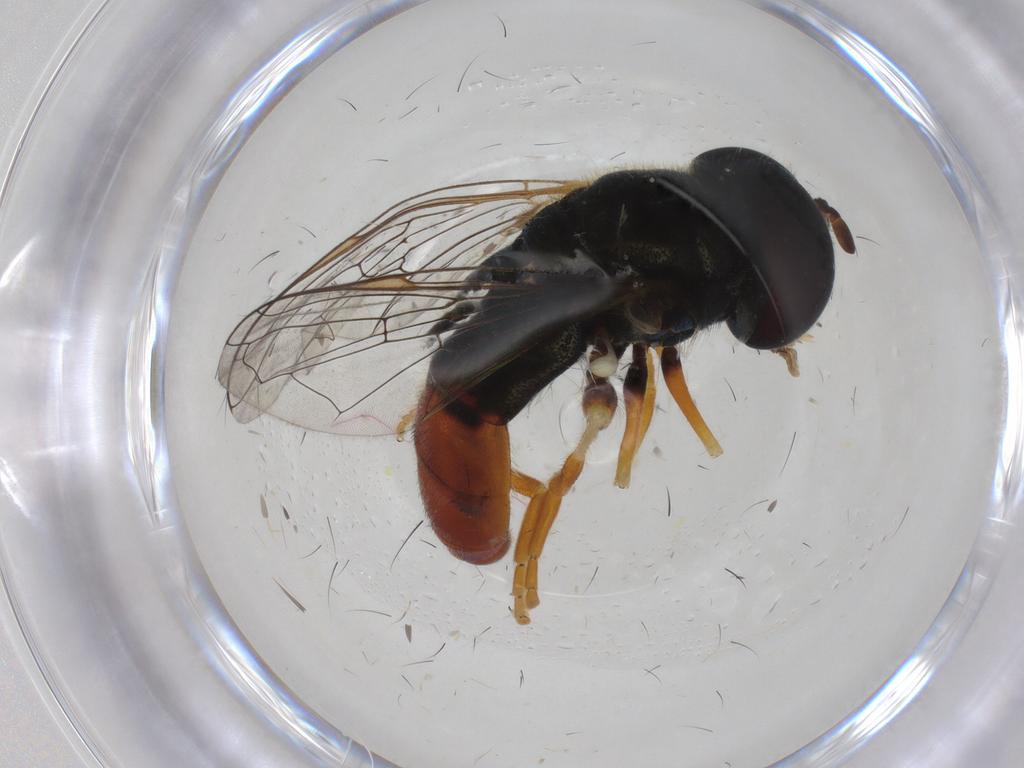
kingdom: Animalia
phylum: Arthropoda
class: Insecta
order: Diptera
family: Syrphidae
